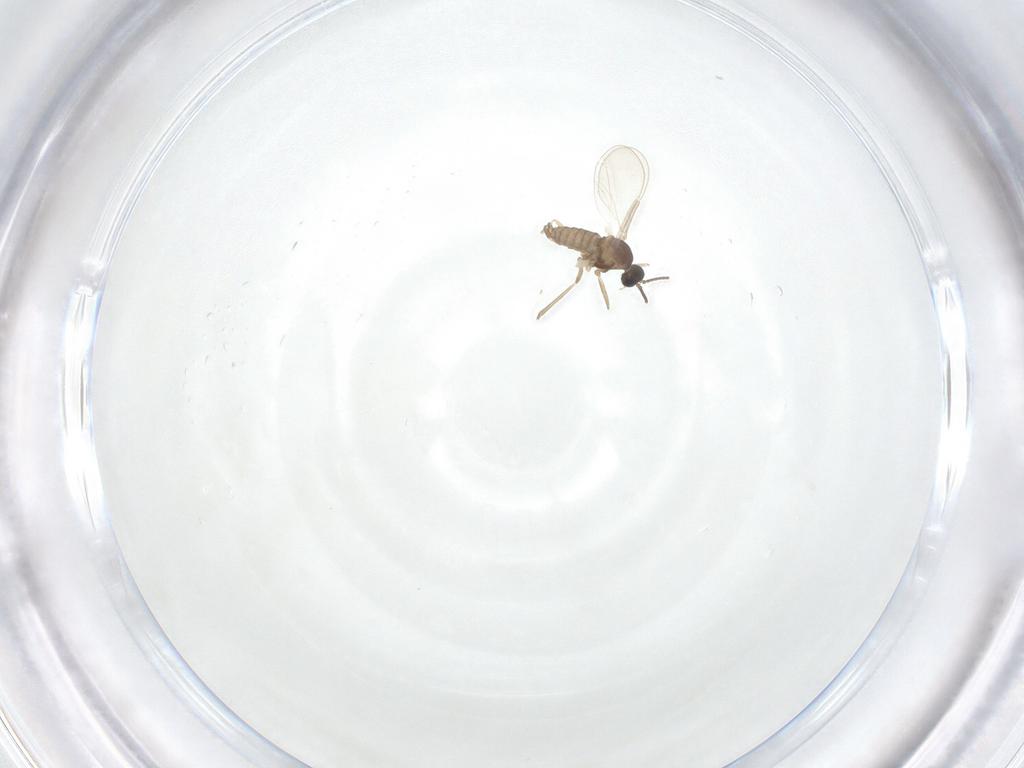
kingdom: Animalia
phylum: Arthropoda
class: Insecta
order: Diptera
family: Cecidomyiidae
